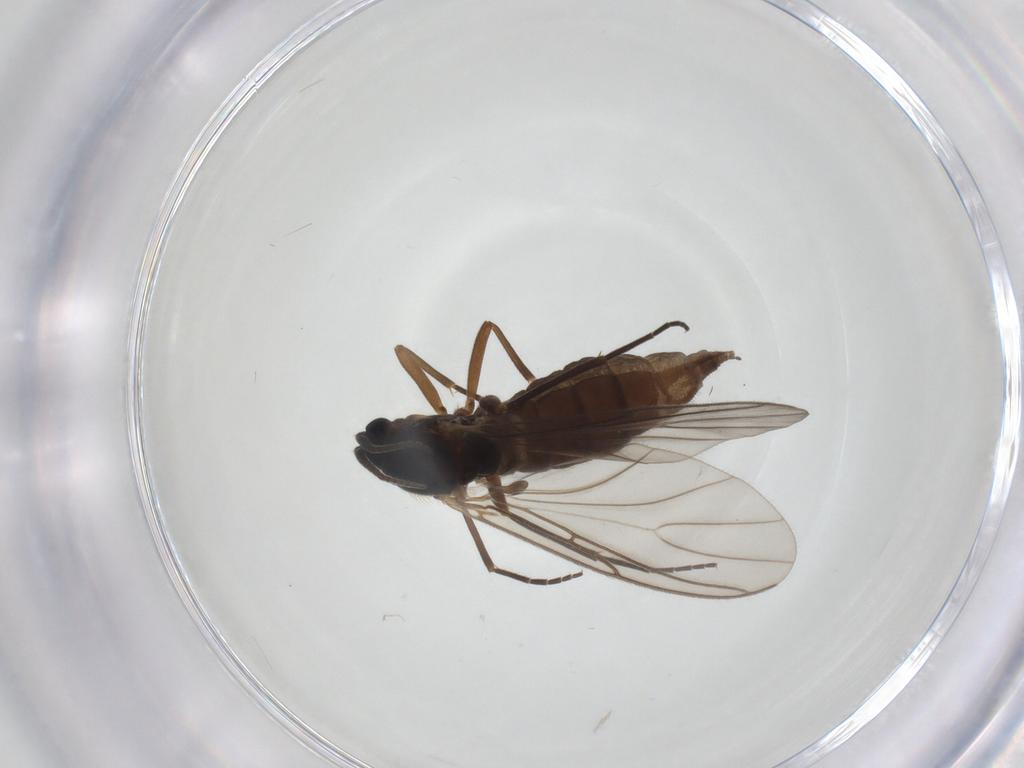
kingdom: Animalia
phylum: Arthropoda
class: Insecta
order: Diptera
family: Sciaridae
